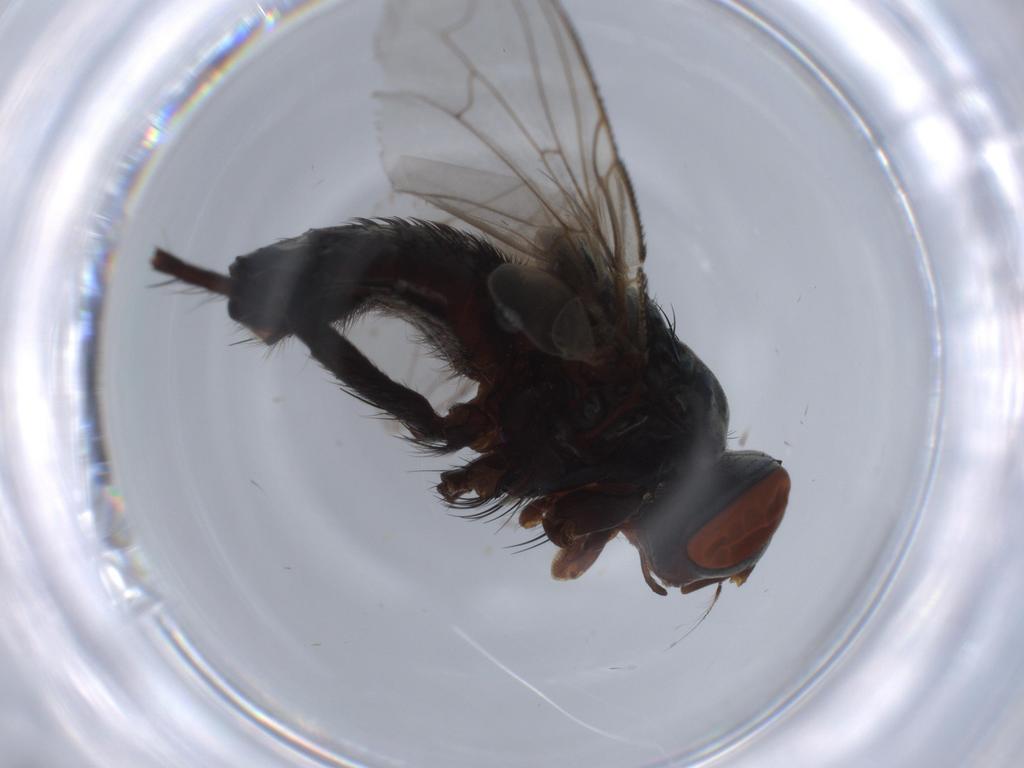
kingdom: Animalia
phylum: Arthropoda
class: Insecta
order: Diptera
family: Sarcophagidae
